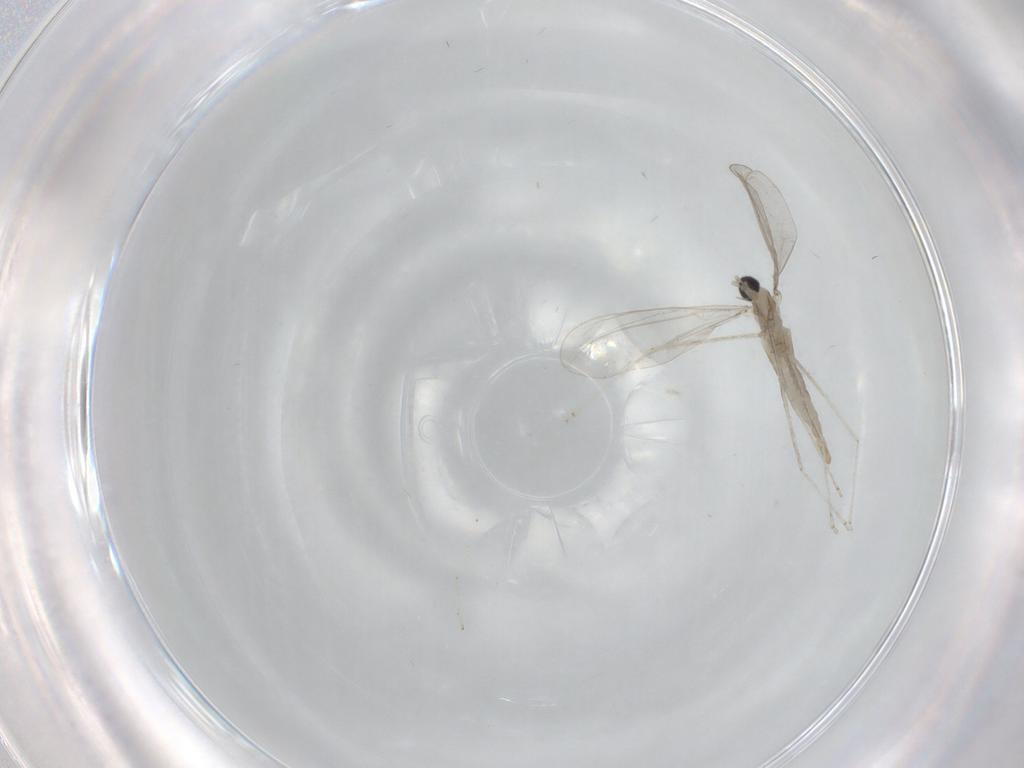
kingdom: Animalia
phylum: Arthropoda
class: Insecta
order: Diptera
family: Cecidomyiidae
